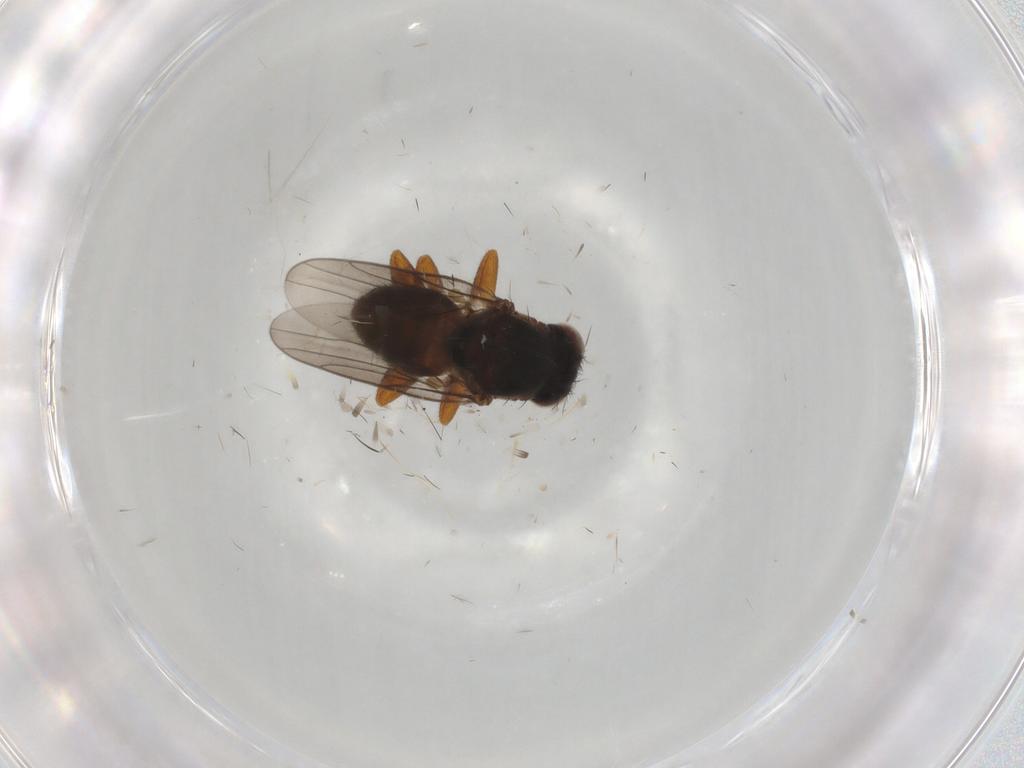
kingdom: Animalia
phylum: Arthropoda
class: Insecta
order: Diptera
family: Chloropidae
